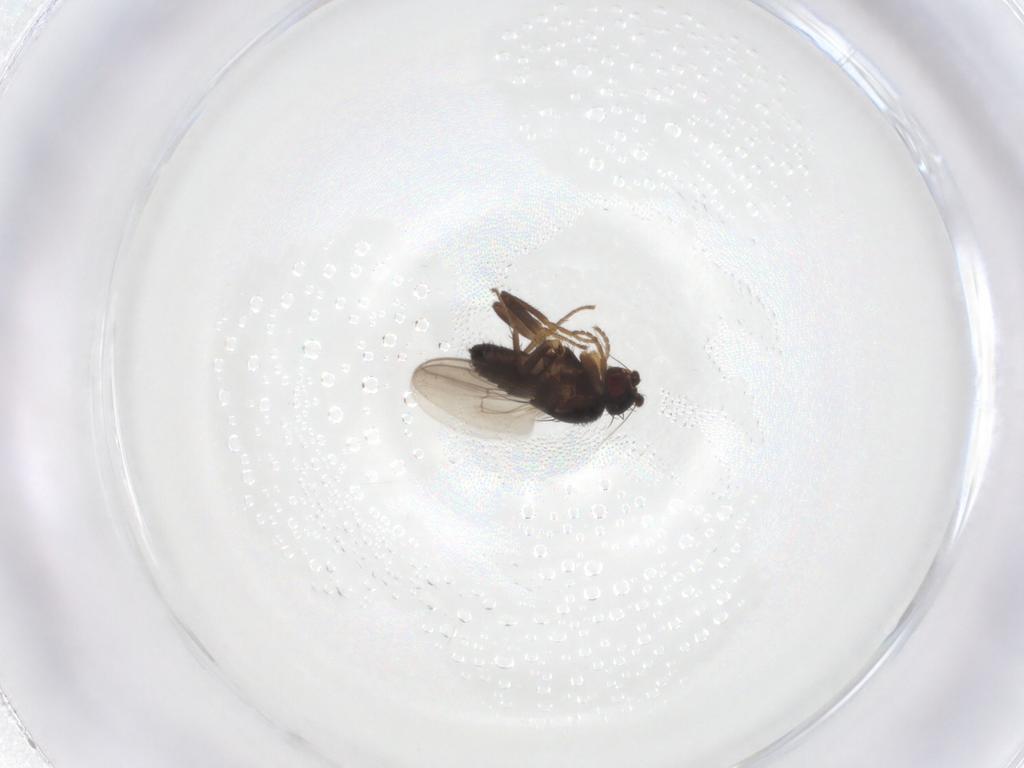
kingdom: Animalia
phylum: Arthropoda
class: Insecta
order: Diptera
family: Sphaeroceridae
